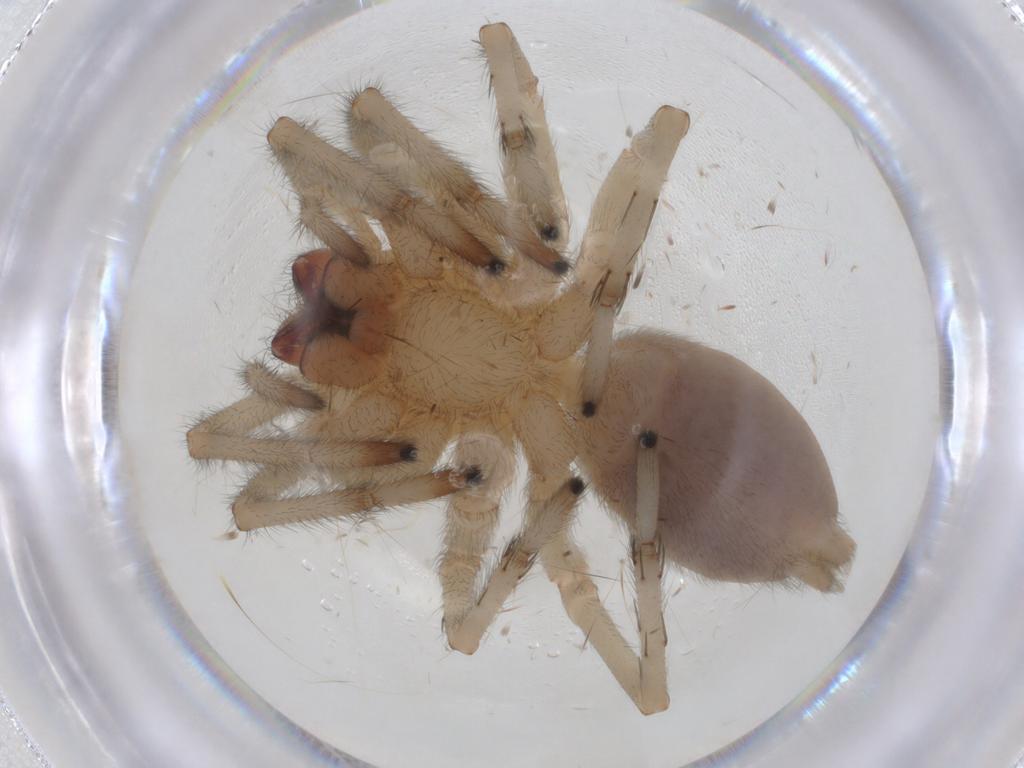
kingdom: Animalia
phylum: Arthropoda
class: Arachnida
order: Araneae
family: Cheiracanthiidae
